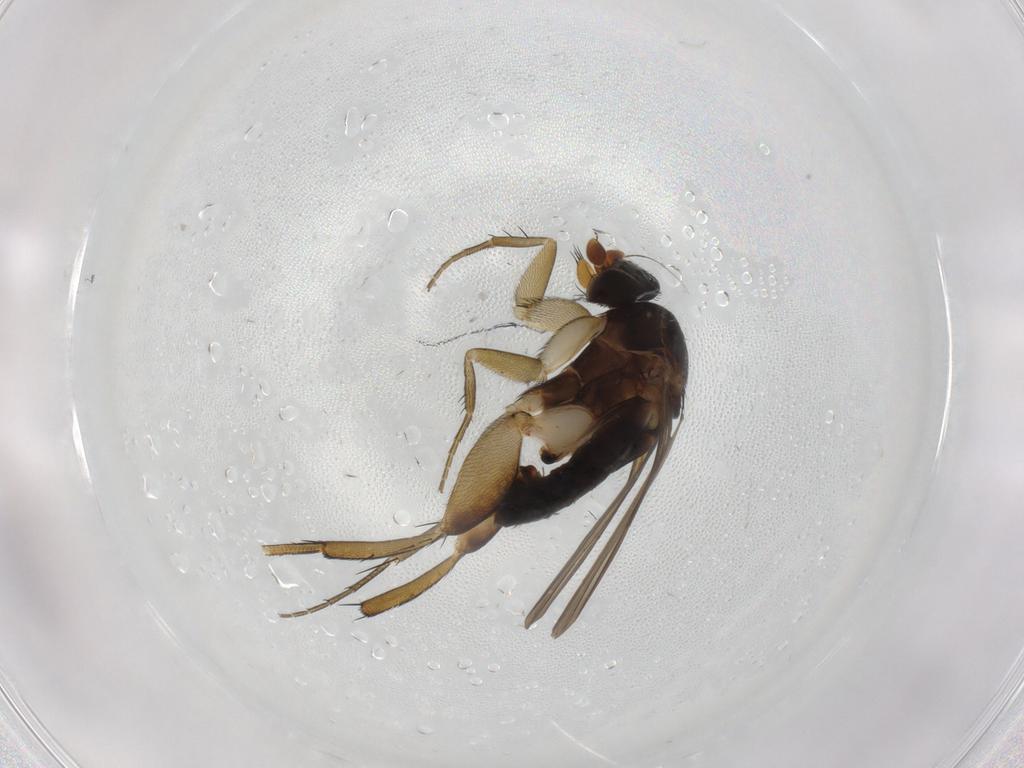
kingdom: Animalia
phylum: Arthropoda
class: Insecta
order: Diptera
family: Phoridae
